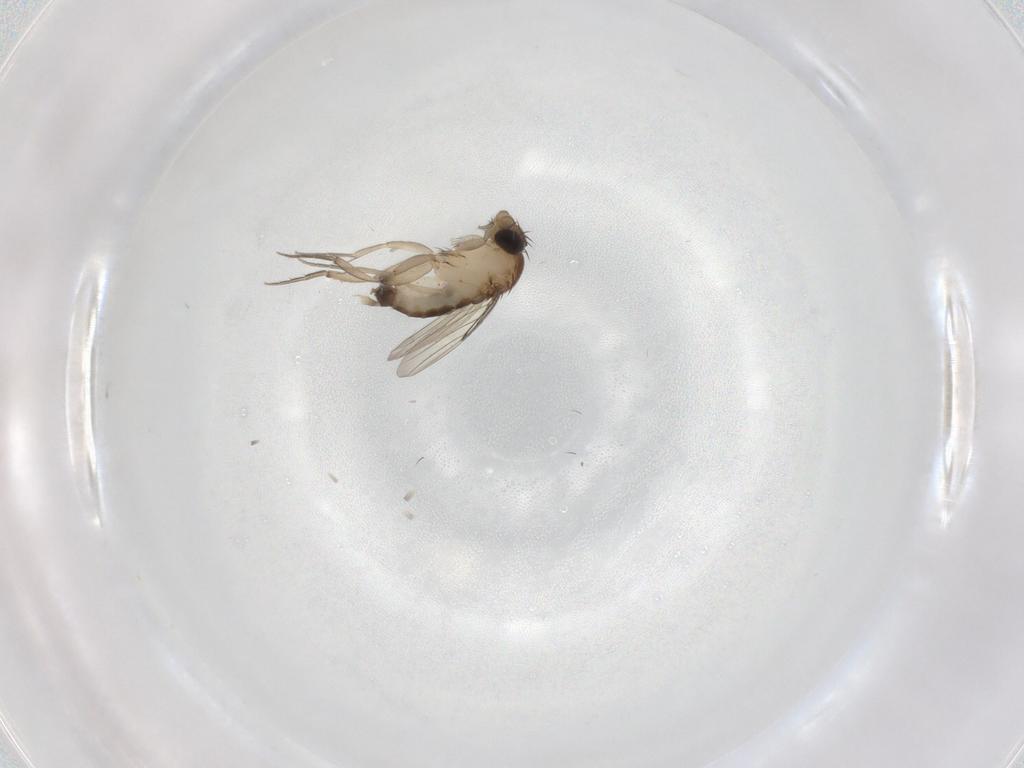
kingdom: Animalia
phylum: Arthropoda
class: Insecta
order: Diptera
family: Phoridae
